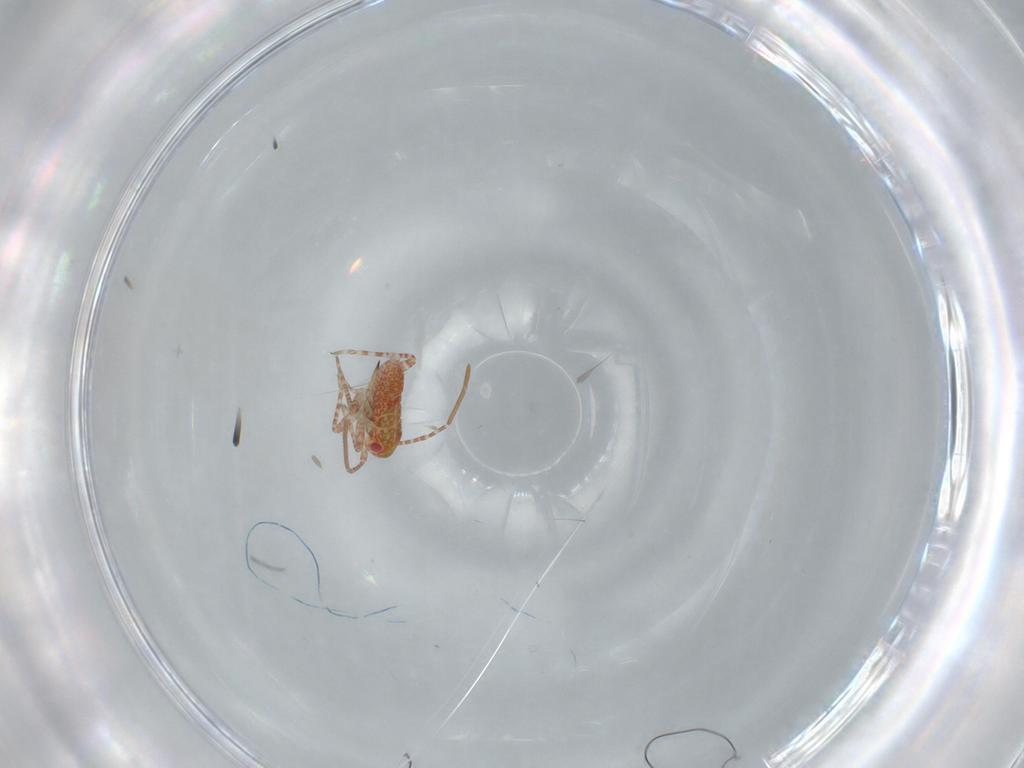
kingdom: Animalia
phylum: Arthropoda
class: Insecta
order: Hemiptera
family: Miridae
